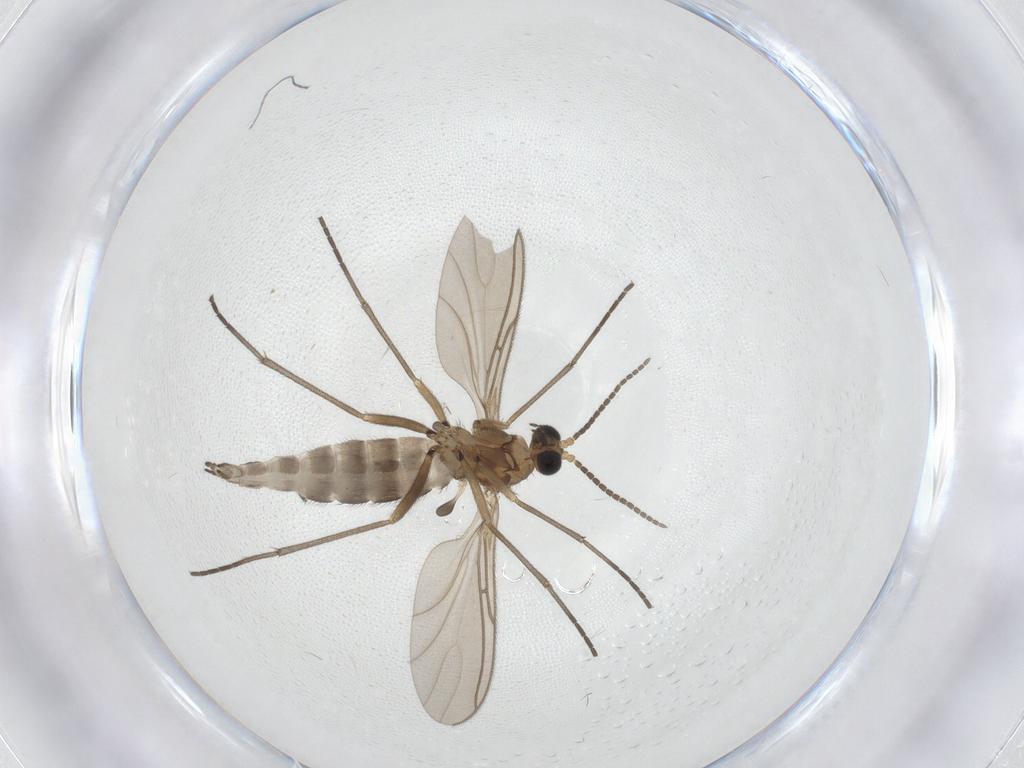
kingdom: Animalia
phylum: Arthropoda
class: Insecta
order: Diptera
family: Sciaridae
